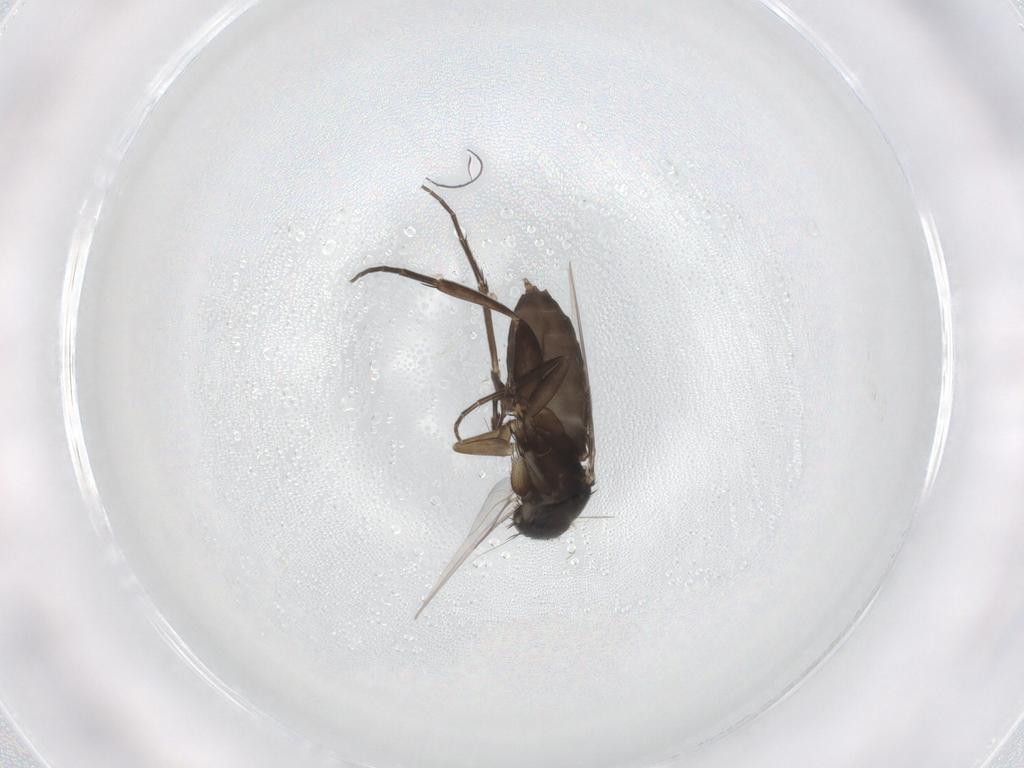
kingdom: Animalia
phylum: Arthropoda
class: Insecta
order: Diptera
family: Phoridae
